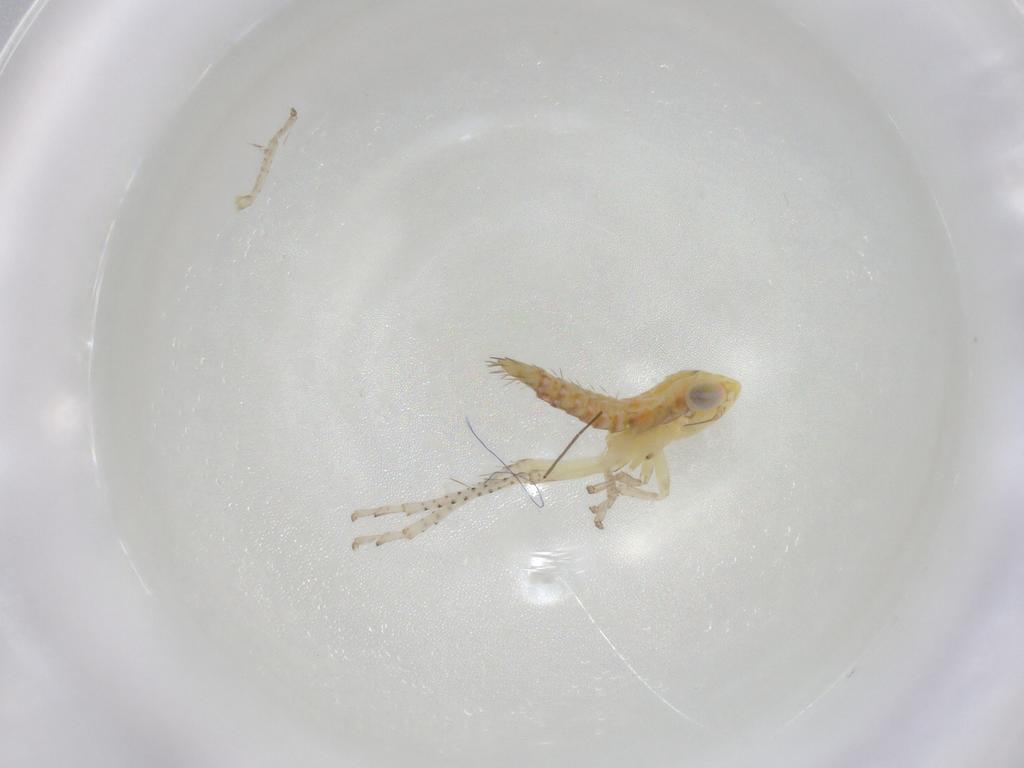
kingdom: Animalia
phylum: Arthropoda
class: Insecta
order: Hemiptera
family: Cicadellidae
